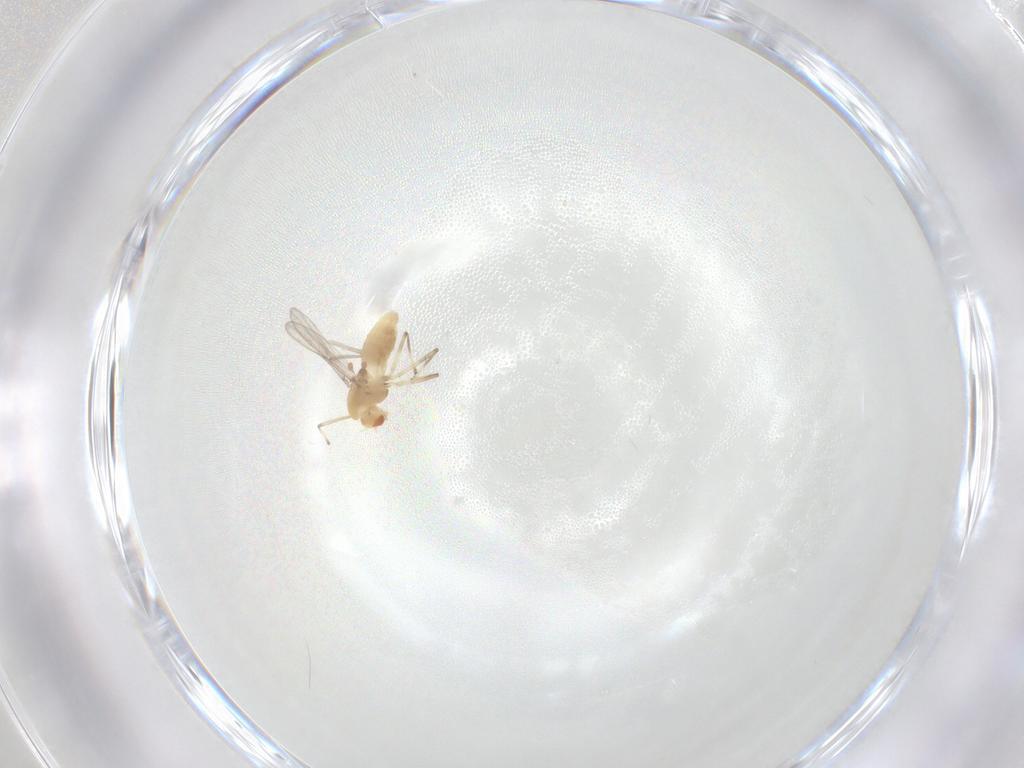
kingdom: Animalia
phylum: Arthropoda
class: Insecta
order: Diptera
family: Chironomidae
